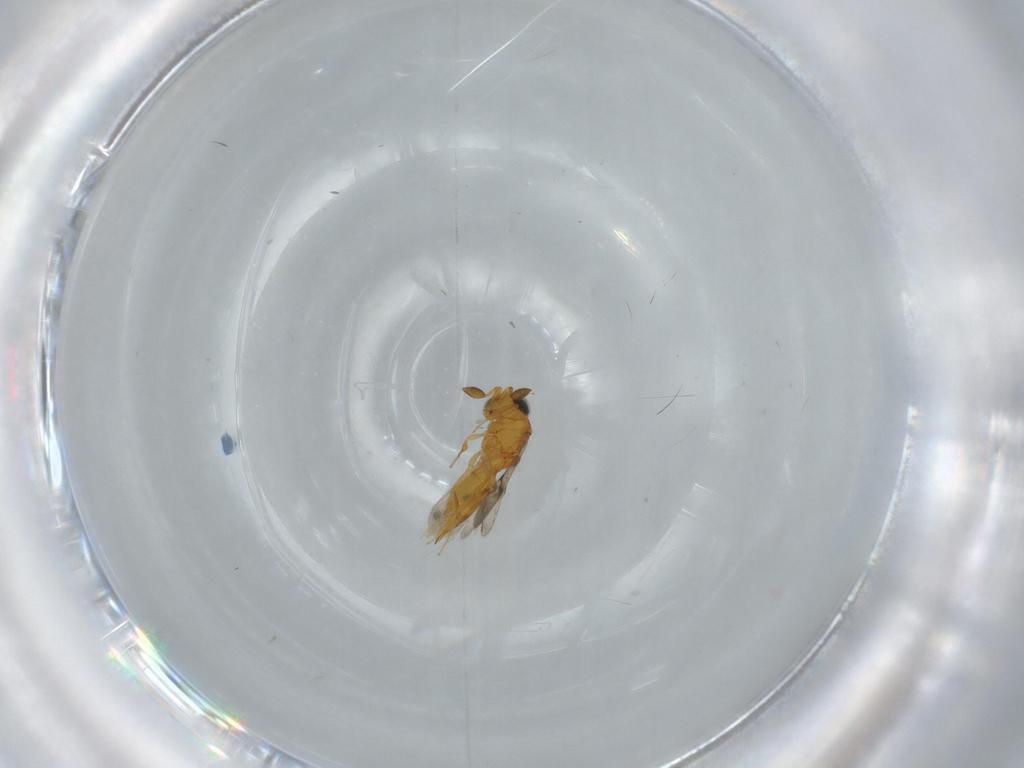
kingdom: Animalia
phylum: Arthropoda
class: Insecta
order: Hymenoptera
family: Scelionidae
